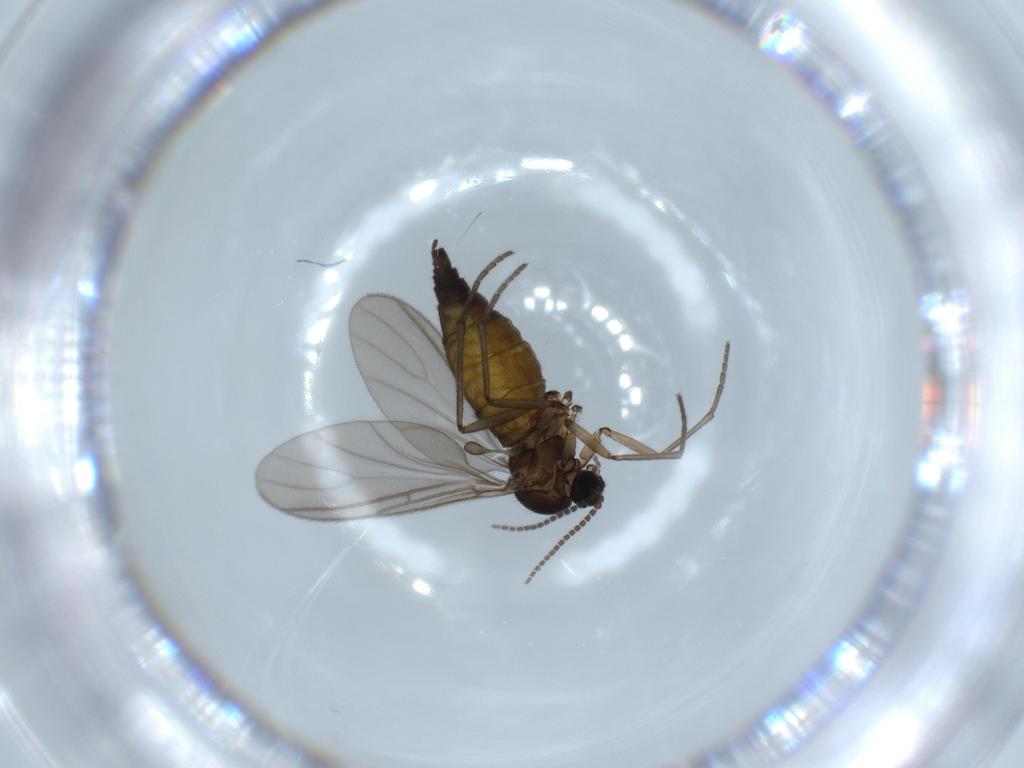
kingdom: Animalia
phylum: Arthropoda
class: Insecta
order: Diptera
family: Sciaridae
